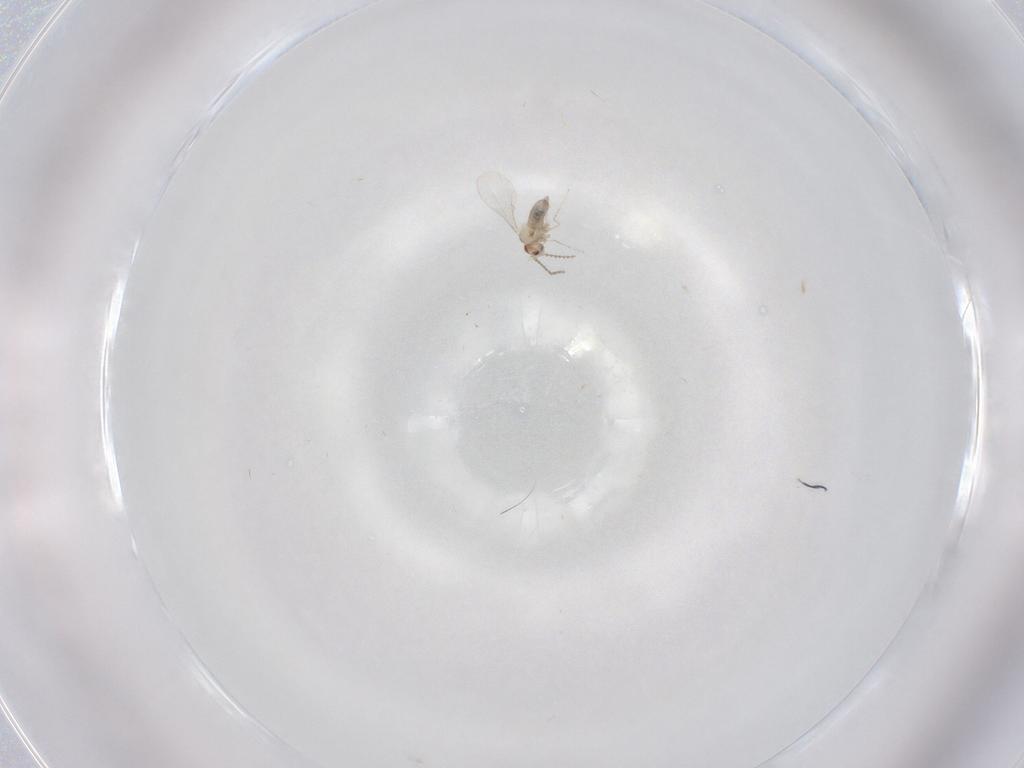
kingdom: Animalia
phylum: Arthropoda
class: Insecta
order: Diptera
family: Cecidomyiidae
